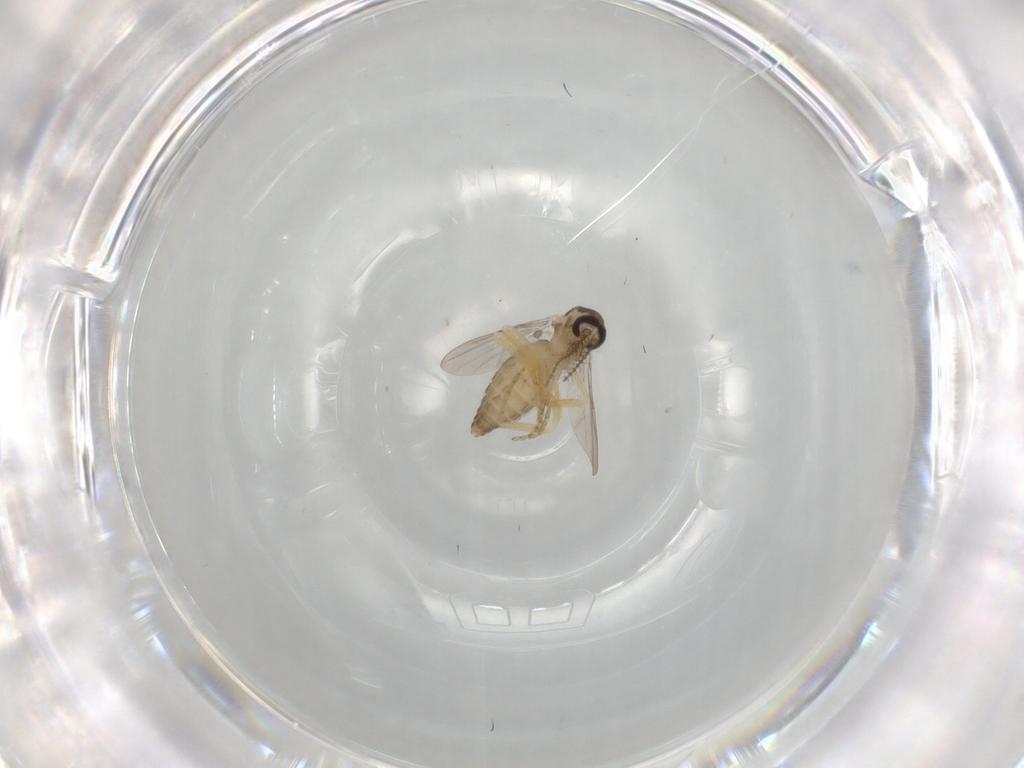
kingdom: Animalia
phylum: Arthropoda
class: Insecta
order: Diptera
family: Ceratopogonidae
